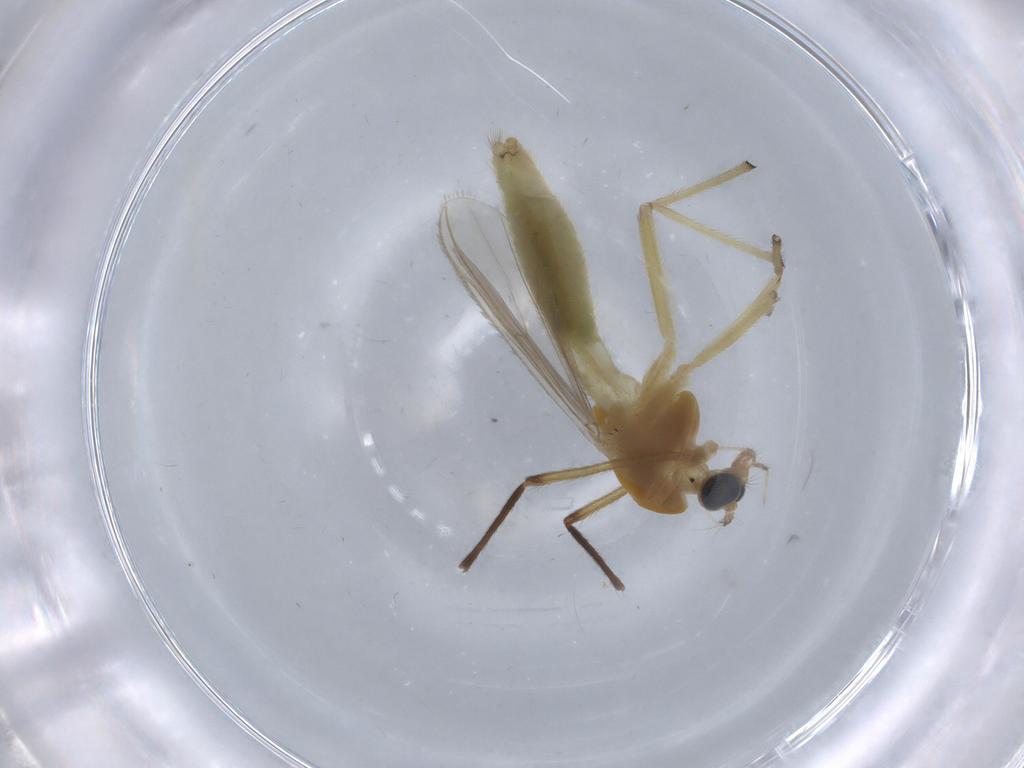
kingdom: Animalia
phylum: Arthropoda
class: Insecta
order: Diptera
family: Chironomidae
